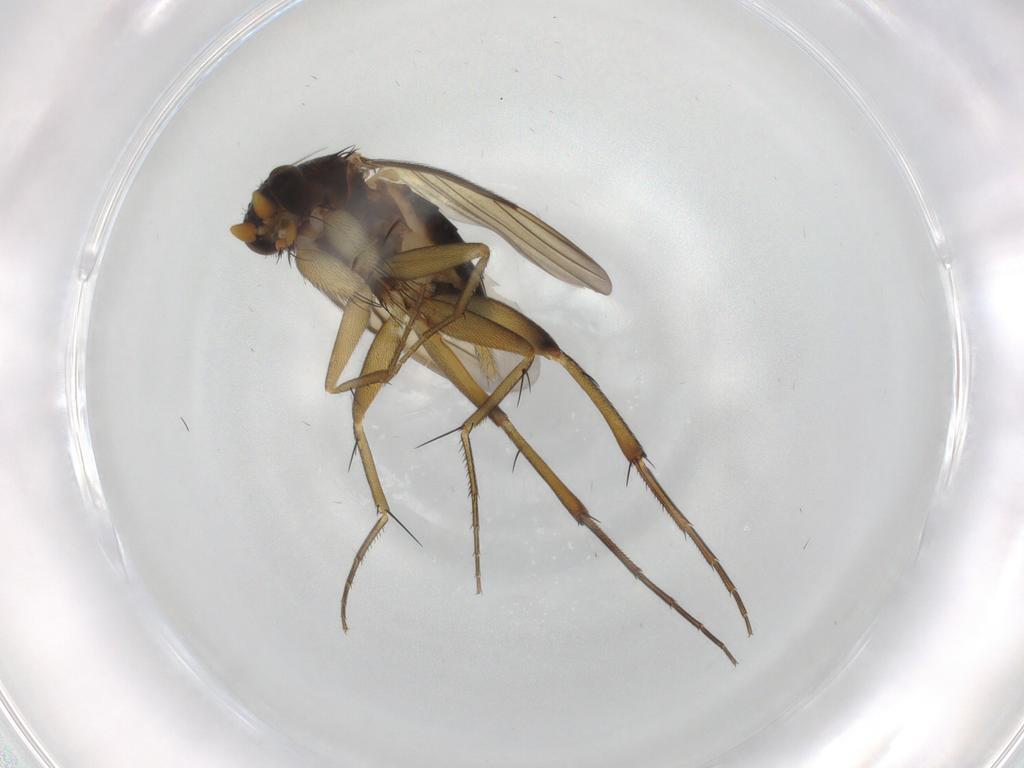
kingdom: Animalia
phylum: Arthropoda
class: Insecta
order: Diptera
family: Phoridae
